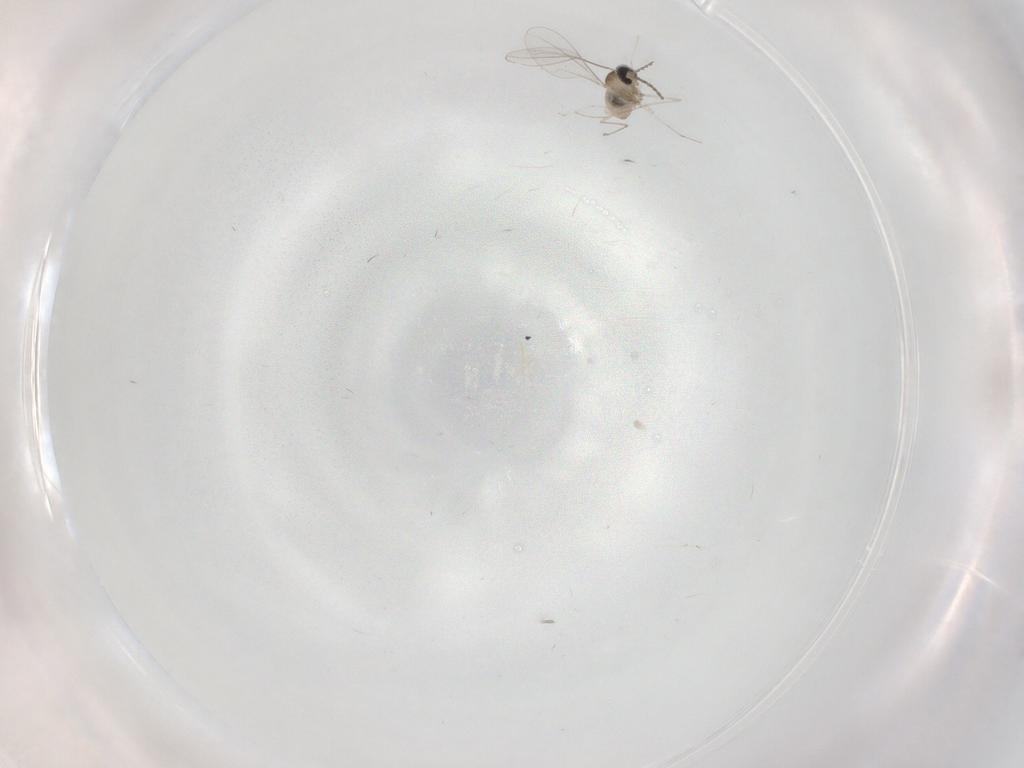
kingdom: Animalia
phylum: Arthropoda
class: Insecta
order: Diptera
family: Cecidomyiidae
